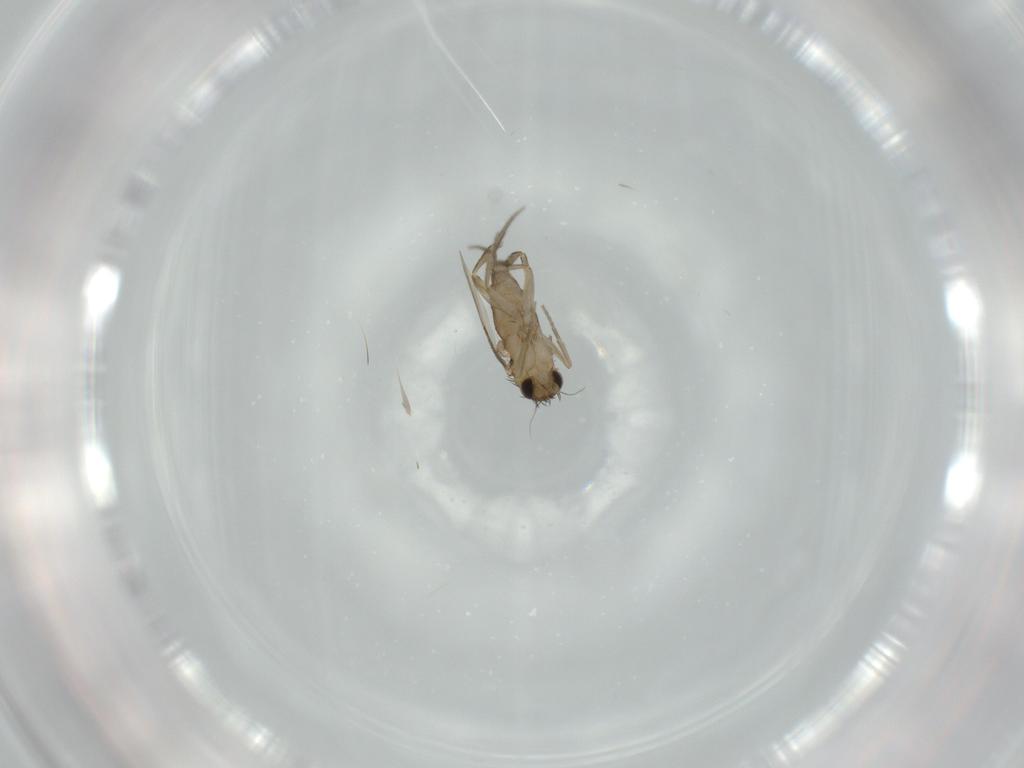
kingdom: Animalia
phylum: Arthropoda
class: Insecta
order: Diptera
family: Phoridae
